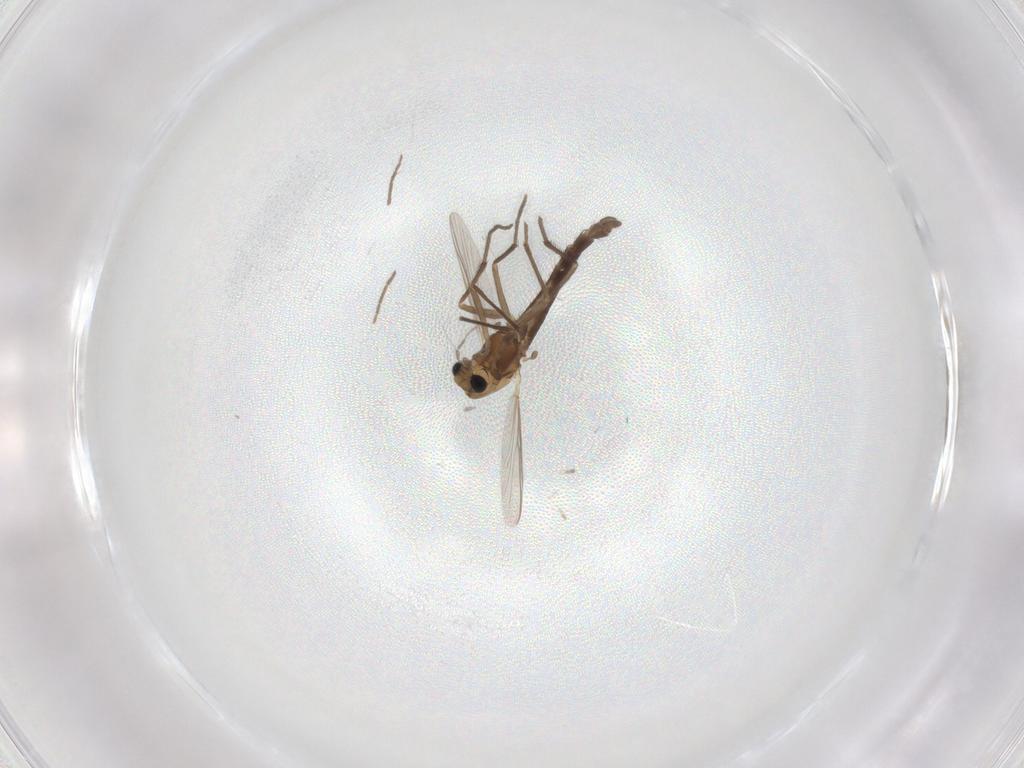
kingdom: Animalia
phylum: Arthropoda
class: Insecta
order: Diptera
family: Chironomidae
